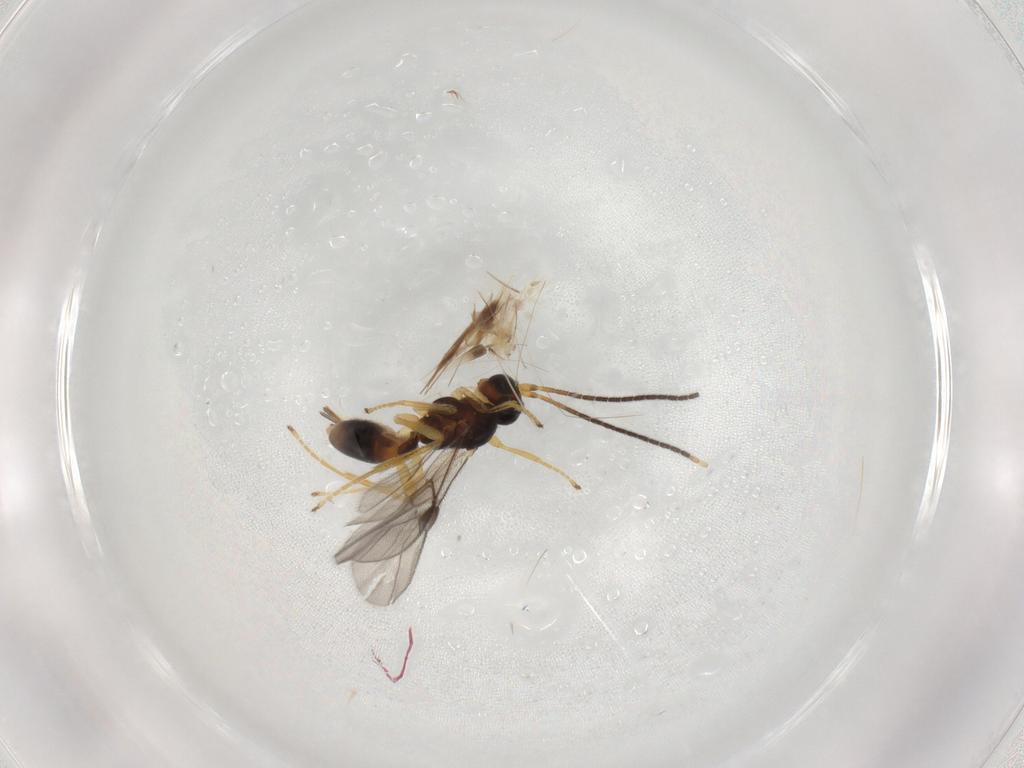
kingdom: Animalia
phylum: Arthropoda
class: Insecta
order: Hymenoptera
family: Braconidae
